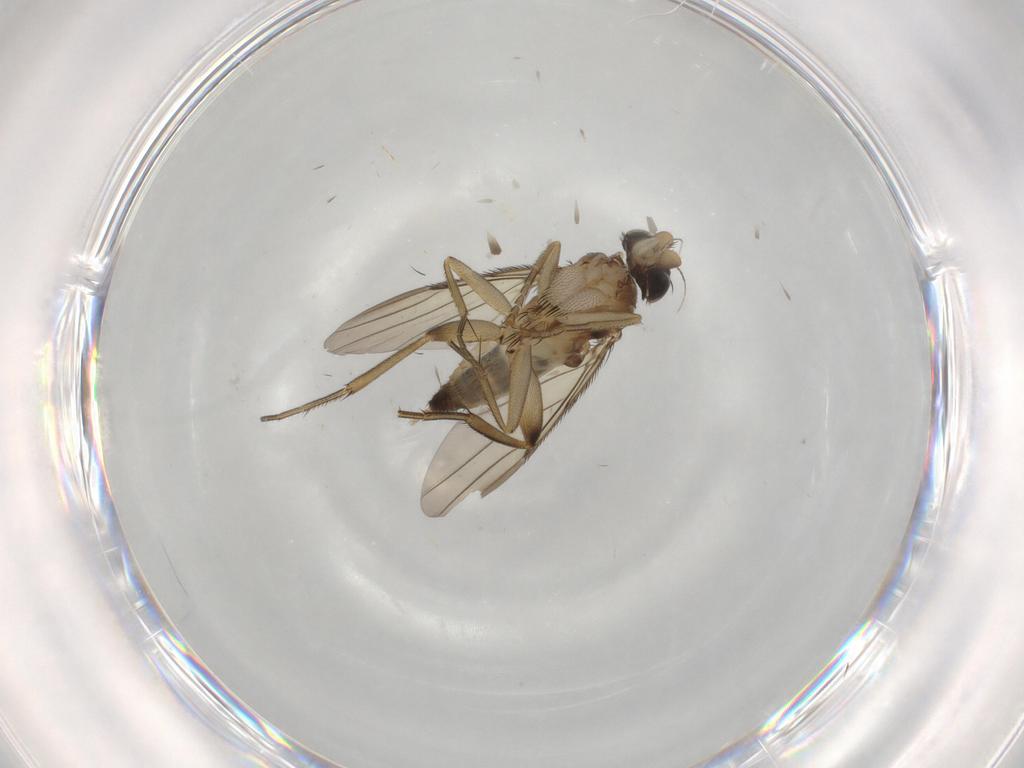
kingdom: Animalia
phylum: Arthropoda
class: Insecta
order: Diptera
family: Phoridae
